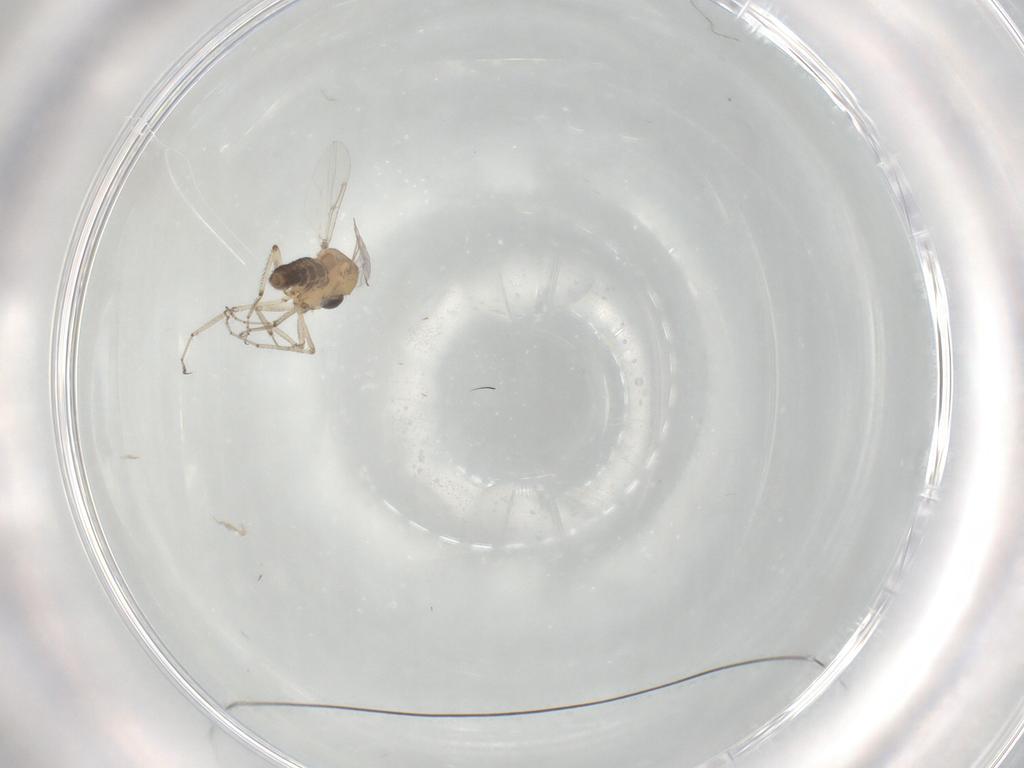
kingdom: Animalia
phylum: Arthropoda
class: Insecta
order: Diptera
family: Ceratopogonidae
